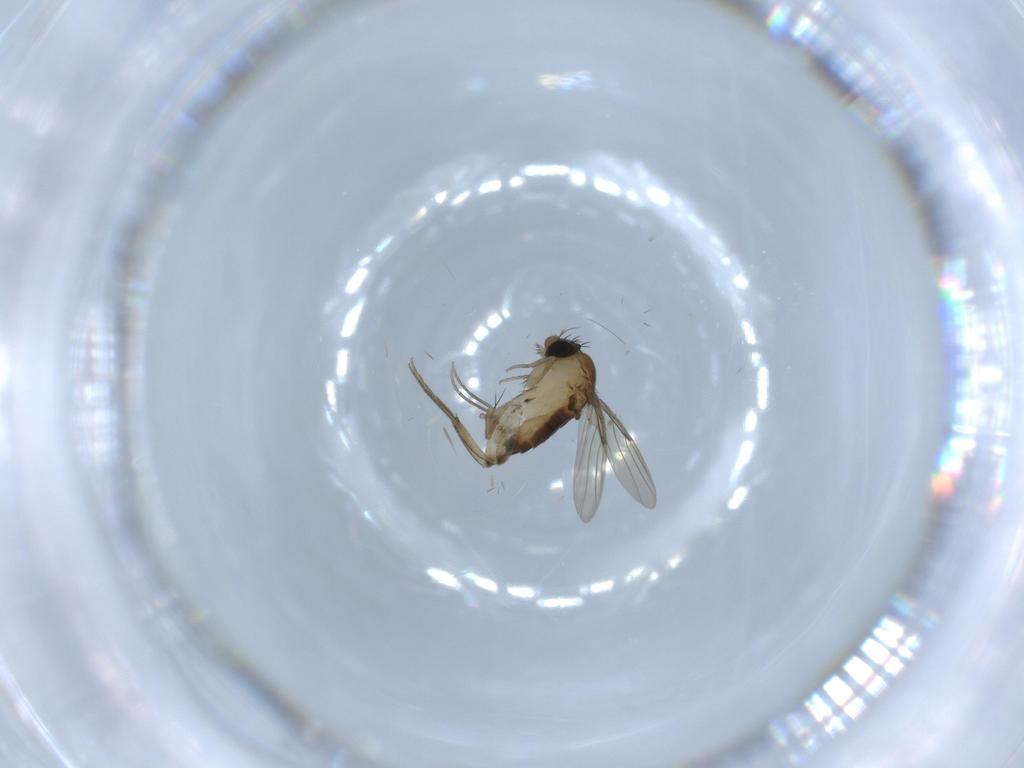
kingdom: Animalia
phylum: Arthropoda
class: Insecta
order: Diptera
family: Cecidomyiidae
